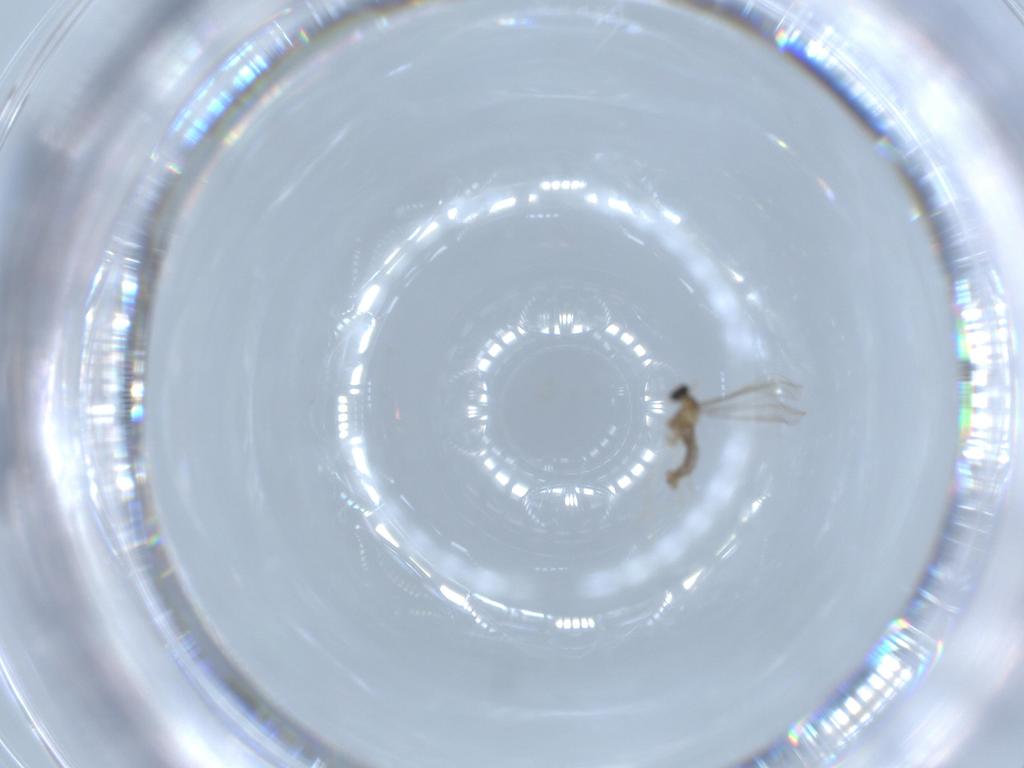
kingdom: Animalia
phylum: Arthropoda
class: Insecta
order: Diptera
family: Cecidomyiidae
